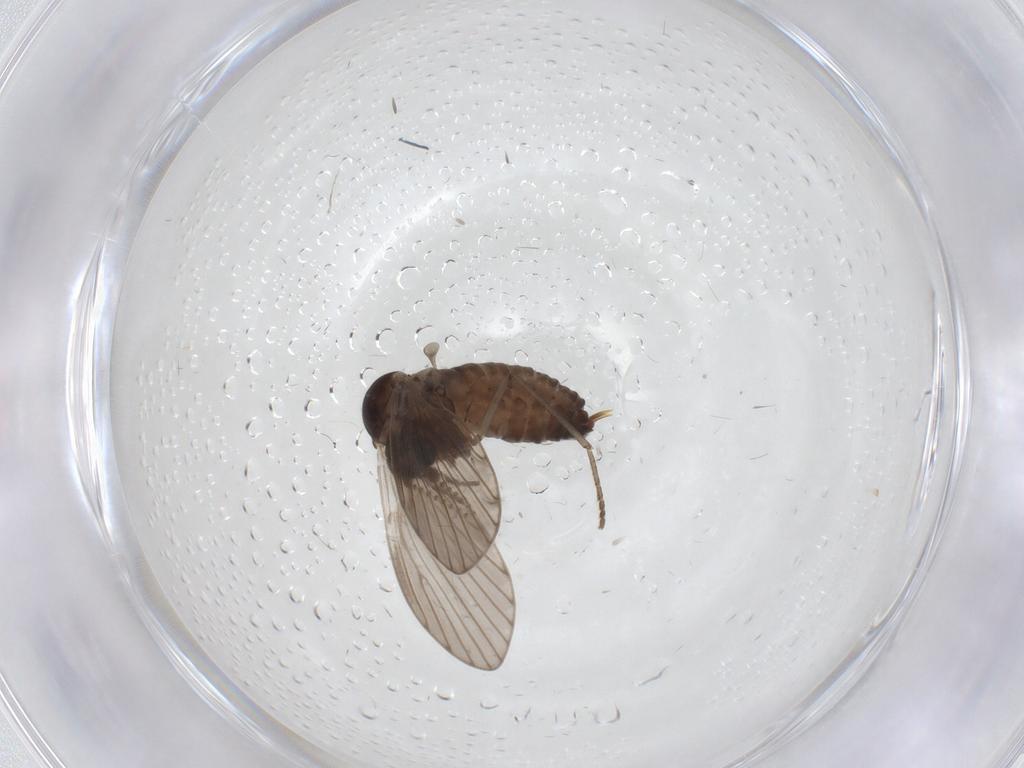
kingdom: Animalia
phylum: Arthropoda
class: Insecta
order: Diptera
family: Psychodidae
